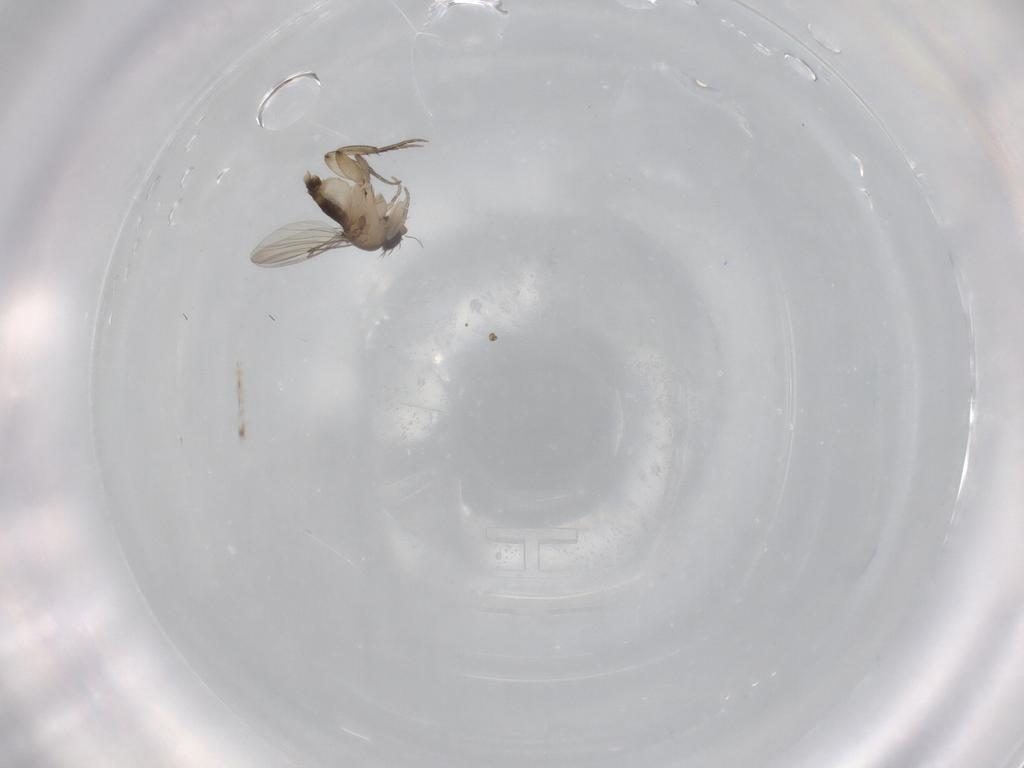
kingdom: Animalia
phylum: Arthropoda
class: Insecta
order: Diptera
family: Phoridae
